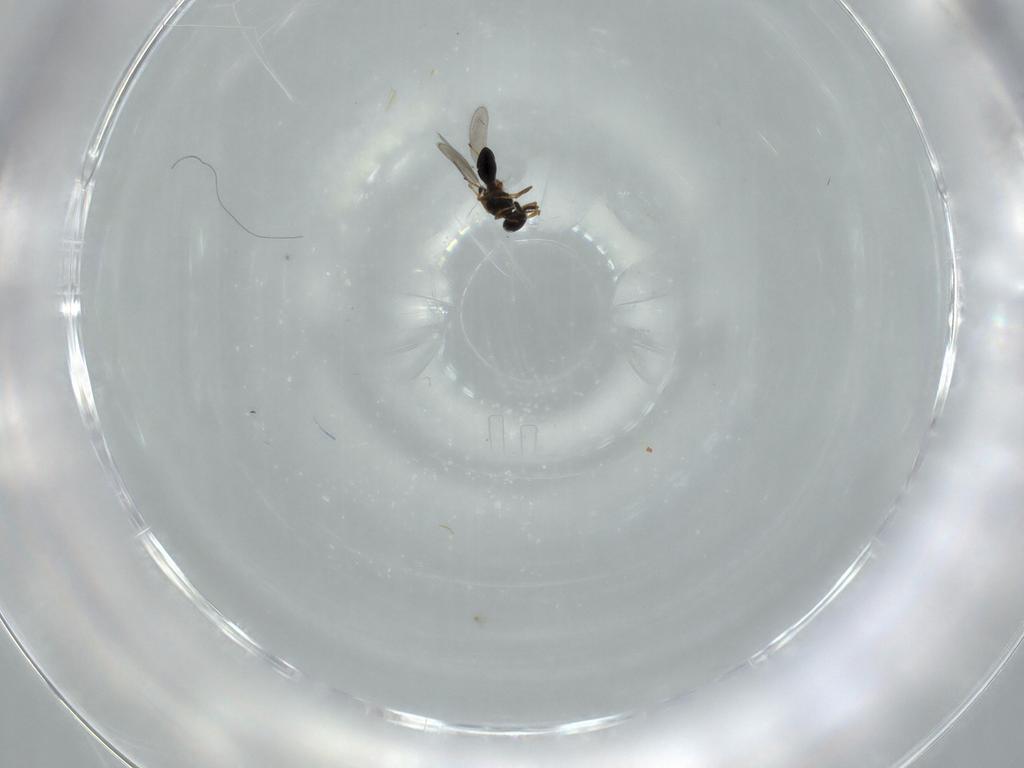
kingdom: Animalia
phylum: Arthropoda
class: Insecta
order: Hymenoptera
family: Platygastridae
